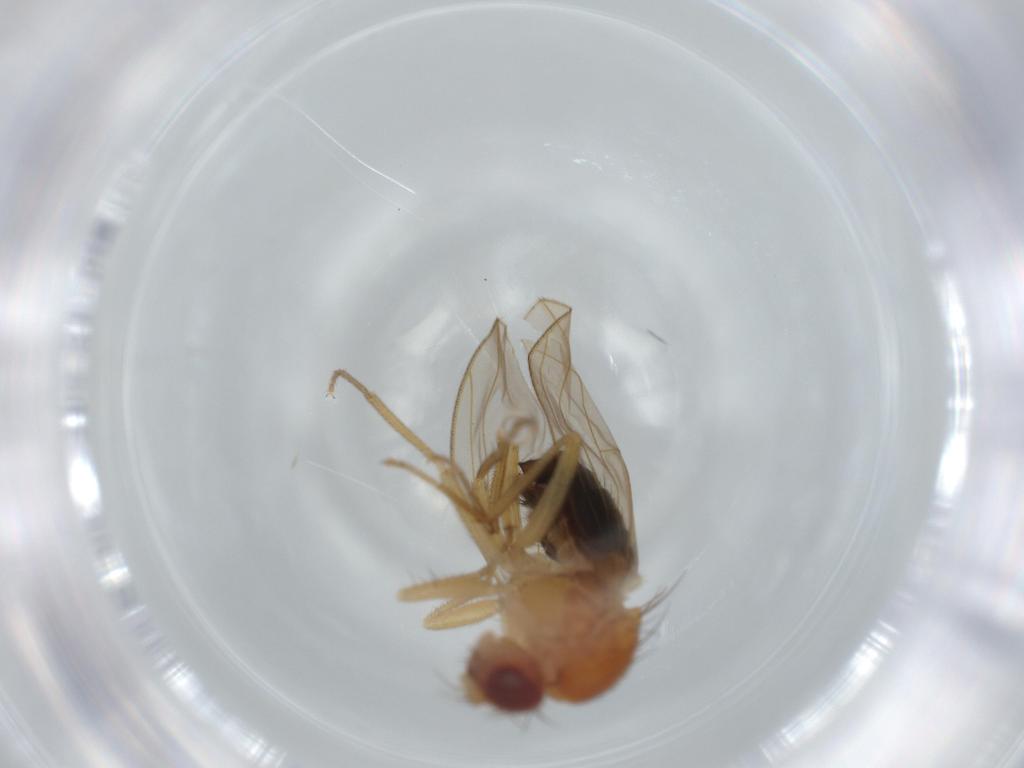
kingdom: Animalia
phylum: Arthropoda
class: Insecta
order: Diptera
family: Drosophilidae
